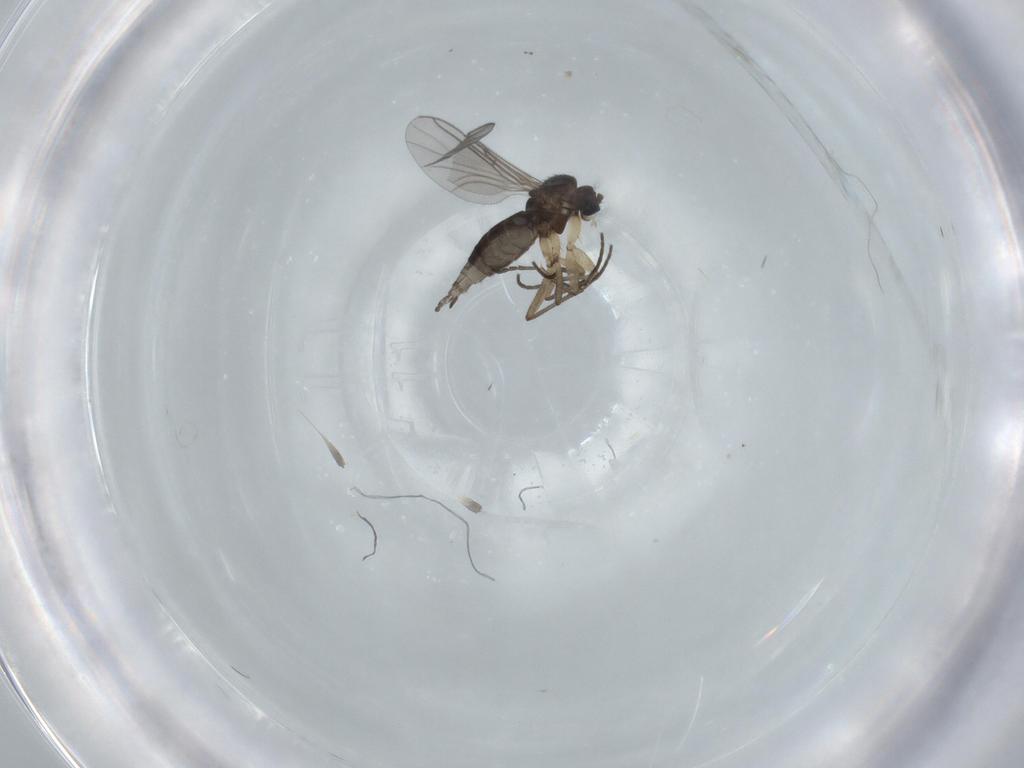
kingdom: Animalia
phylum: Arthropoda
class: Insecta
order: Diptera
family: Sciaridae
